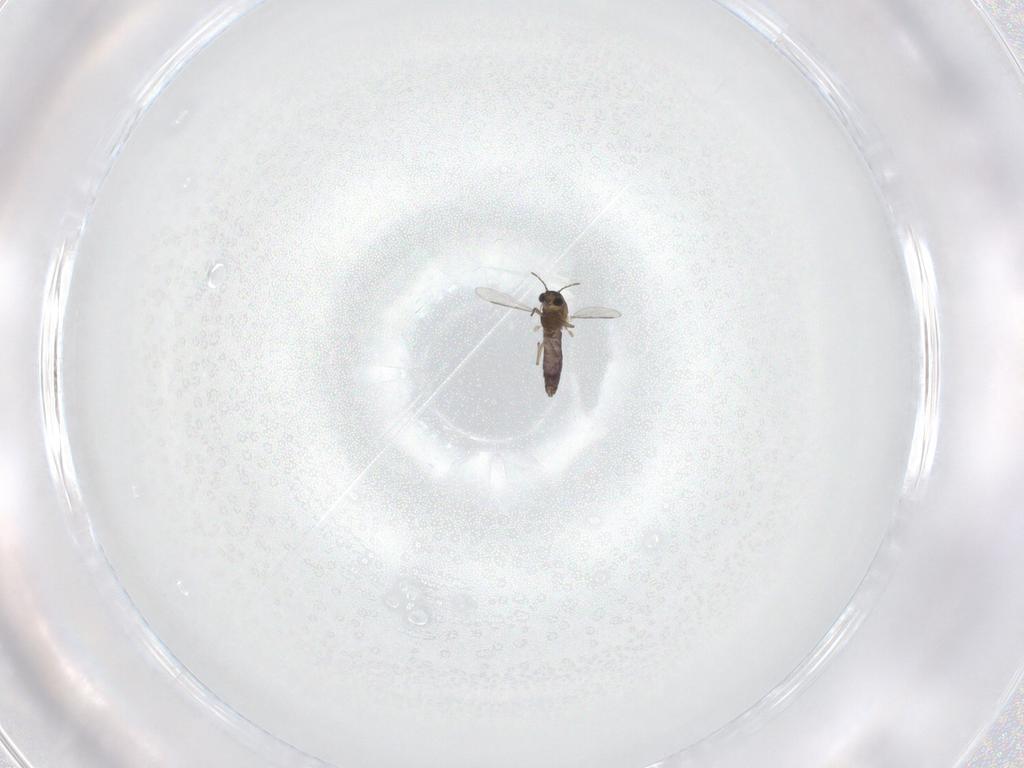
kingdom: Animalia
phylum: Arthropoda
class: Insecta
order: Diptera
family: Chironomidae
